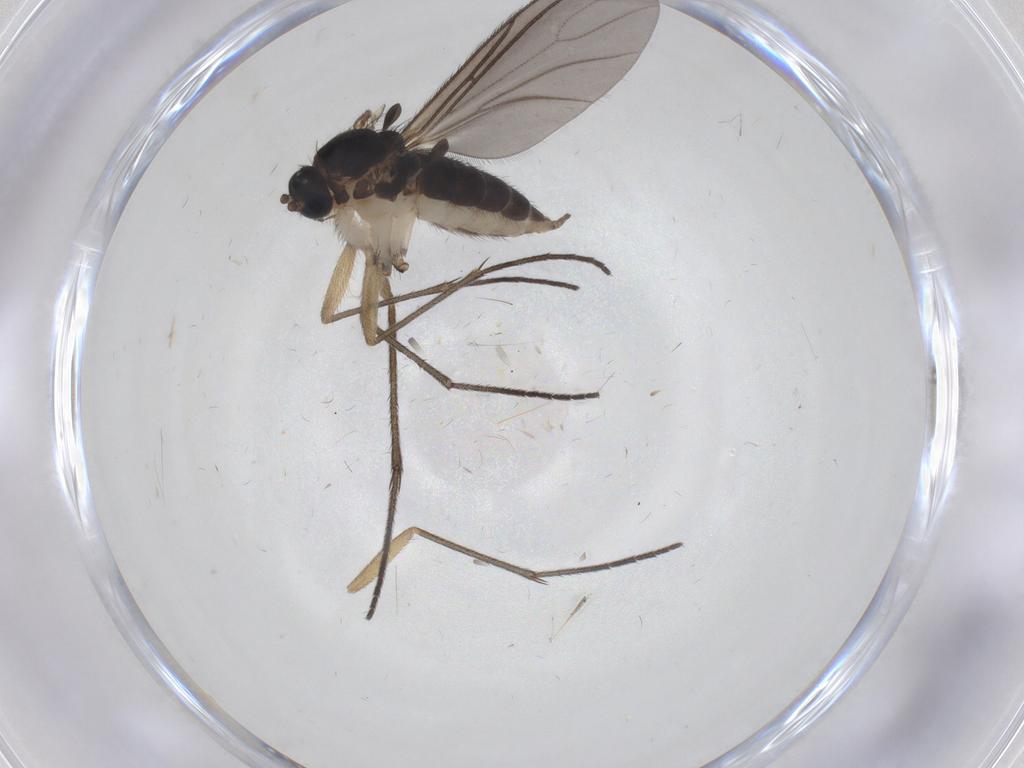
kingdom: Animalia
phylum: Arthropoda
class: Insecta
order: Diptera
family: Sciaridae
